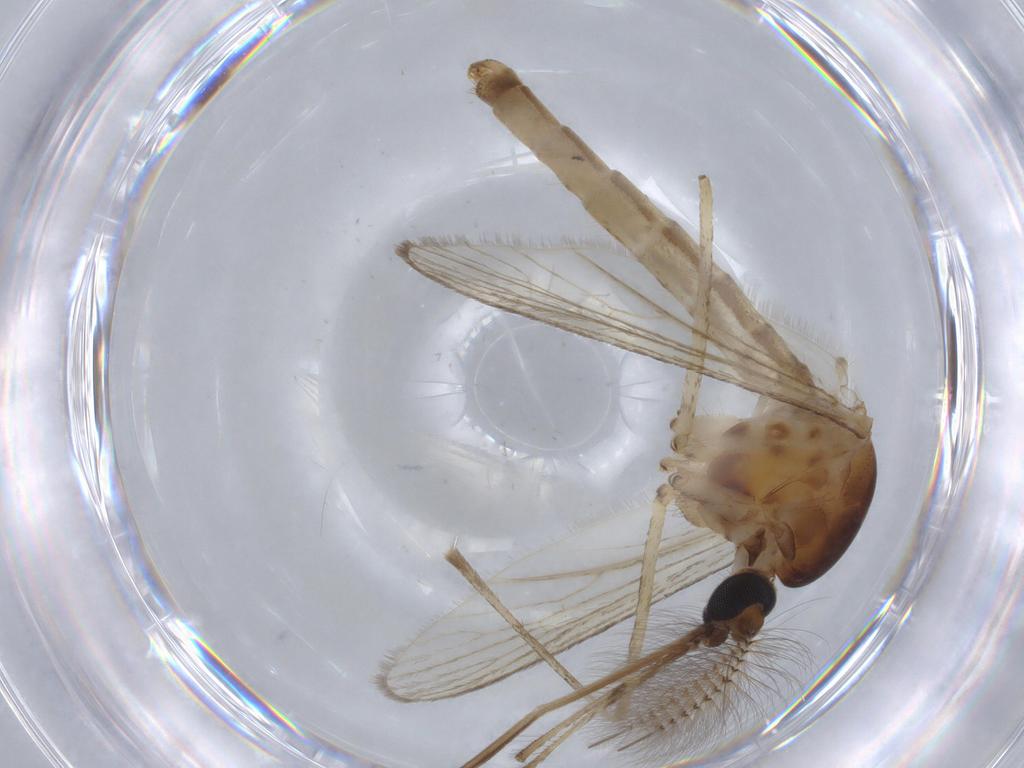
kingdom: Animalia
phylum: Arthropoda
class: Insecta
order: Diptera
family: Hybotidae
